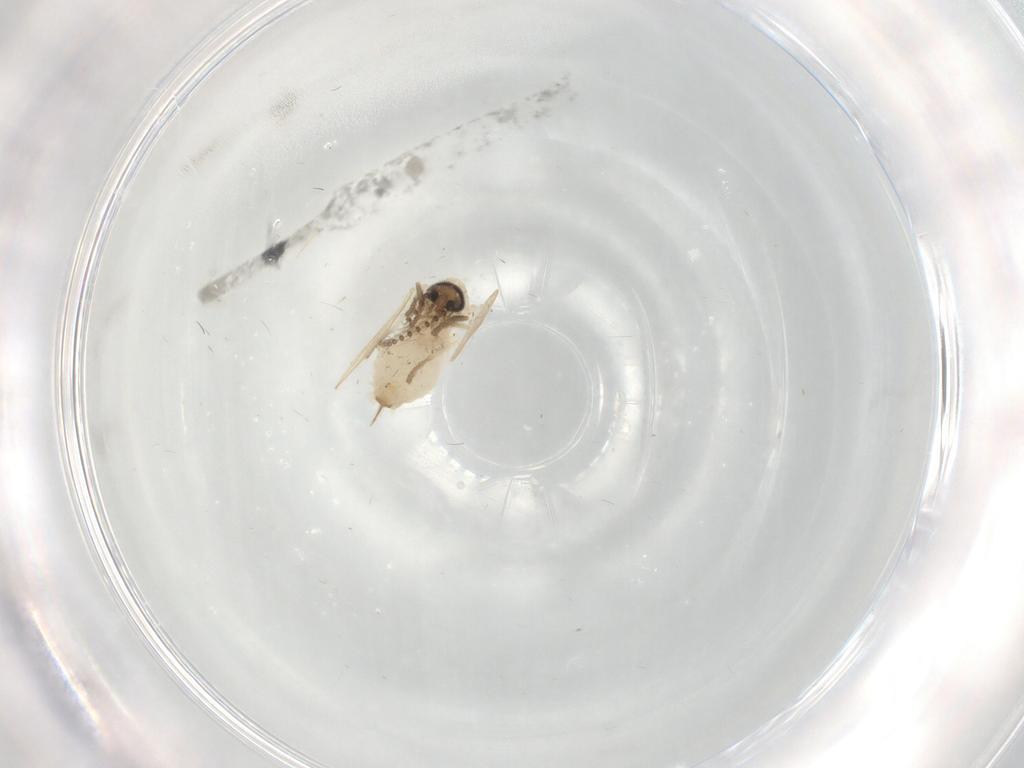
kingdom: Animalia
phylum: Arthropoda
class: Insecta
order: Diptera
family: Psychodidae
